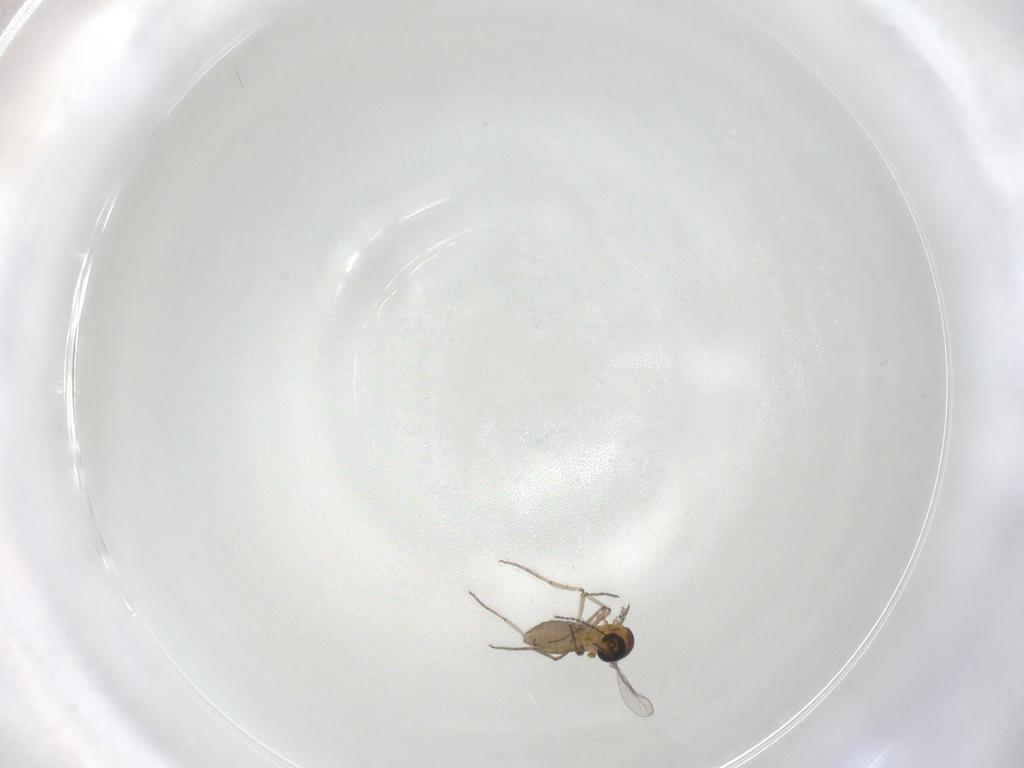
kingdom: Animalia
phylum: Arthropoda
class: Insecta
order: Diptera
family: Ceratopogonidae
